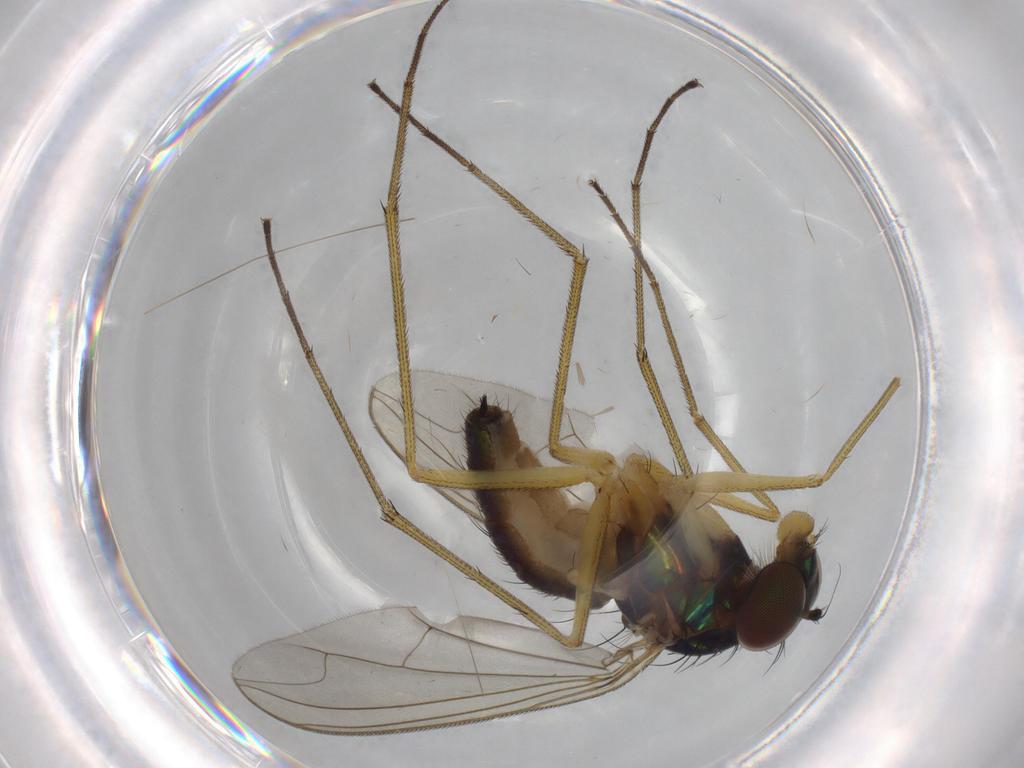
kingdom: Animalia
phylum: Arthropoda
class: Insecta
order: Diptera
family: Dolichopodidae
